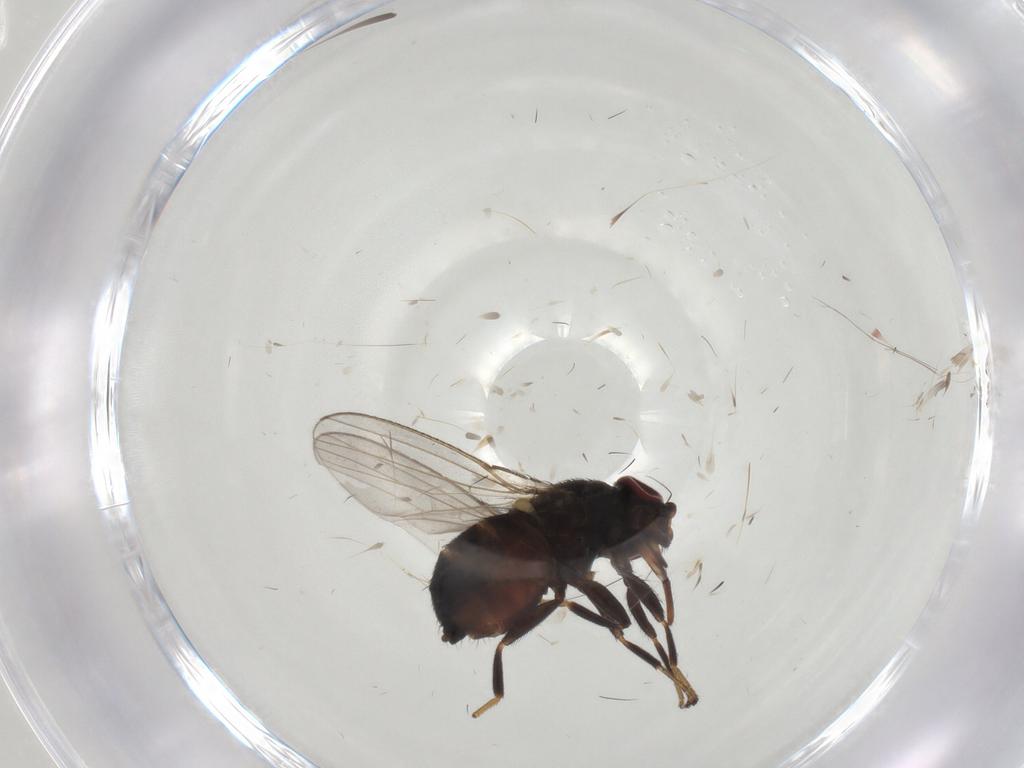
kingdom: Animalia
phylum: Arthropoda
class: Insecta
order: Diptera
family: Milichiidae
